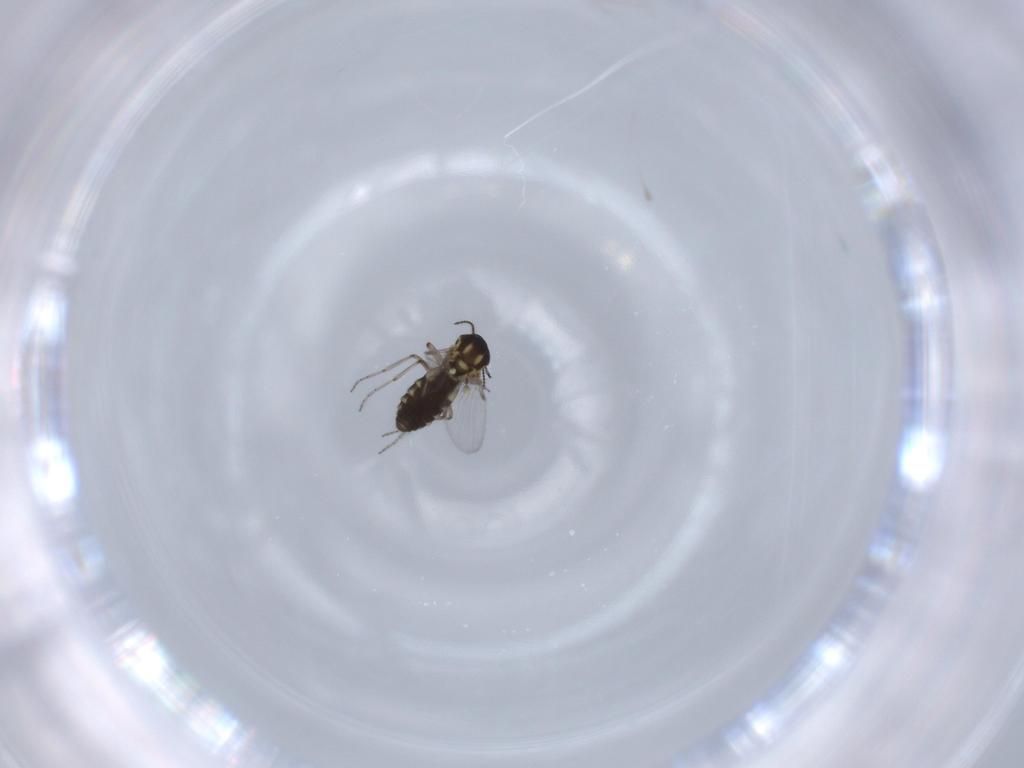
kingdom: Animalia
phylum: Arthropoda
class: Insecta
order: Diptera
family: Ceratopogonidae
